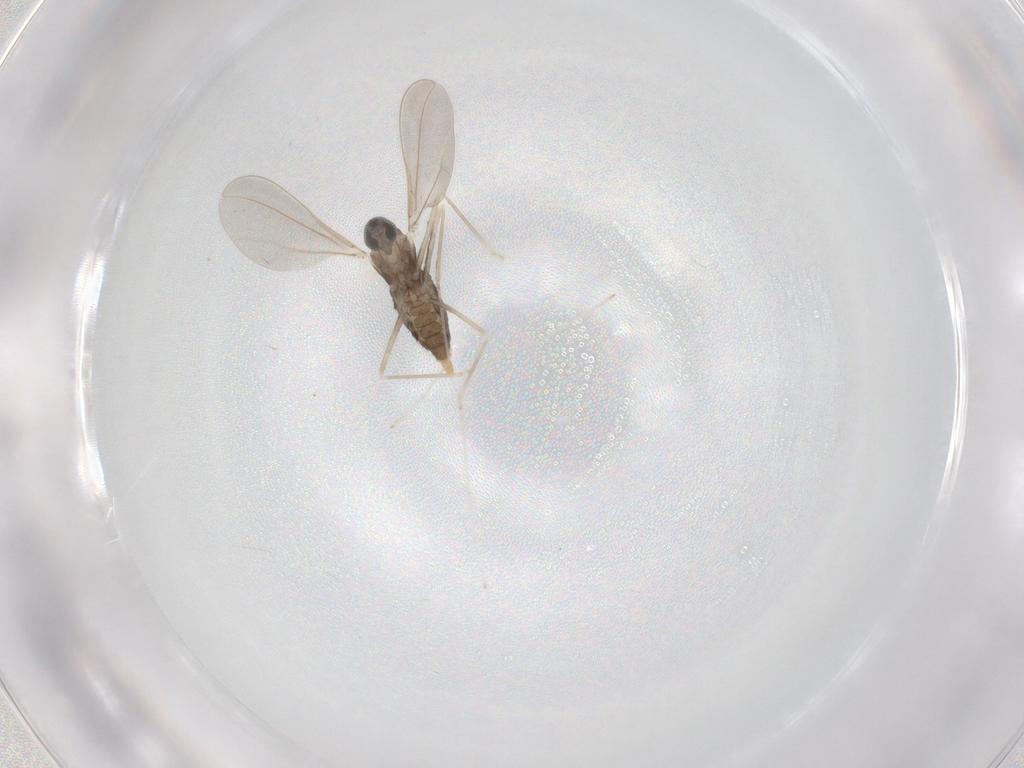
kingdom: Animalia
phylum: Arthropoda
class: Insecta
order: Diptera
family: Cecidomyiidae
